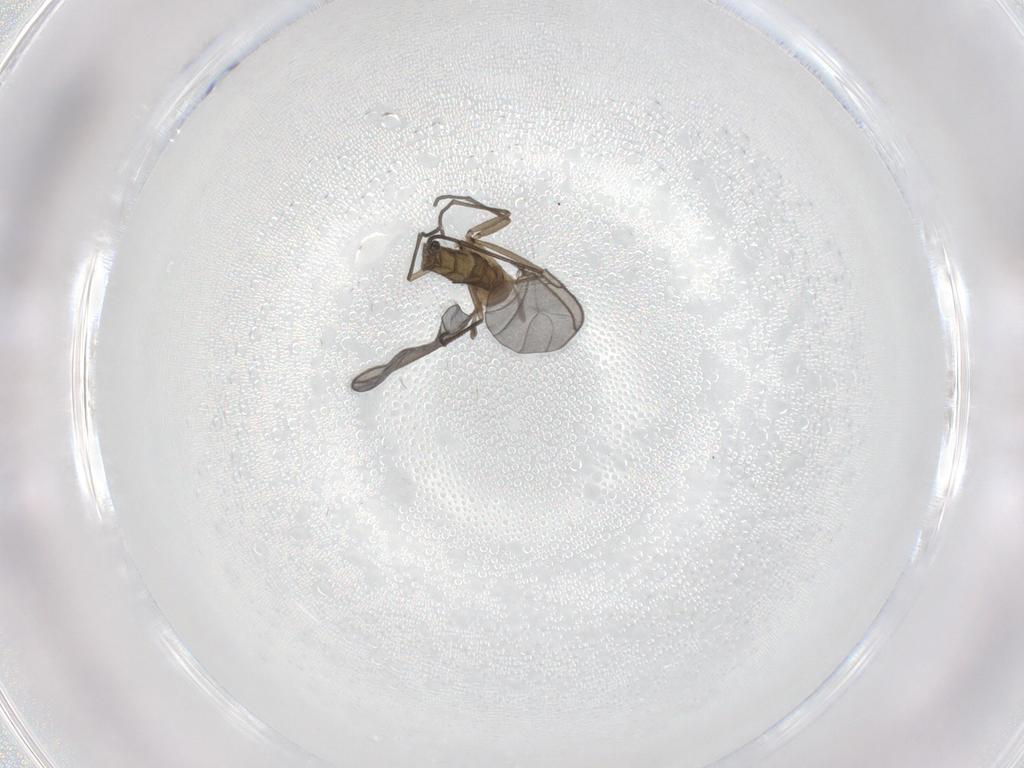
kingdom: Animalia
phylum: Arthropoda
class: Insecta
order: Diptera
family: Sciaridae
